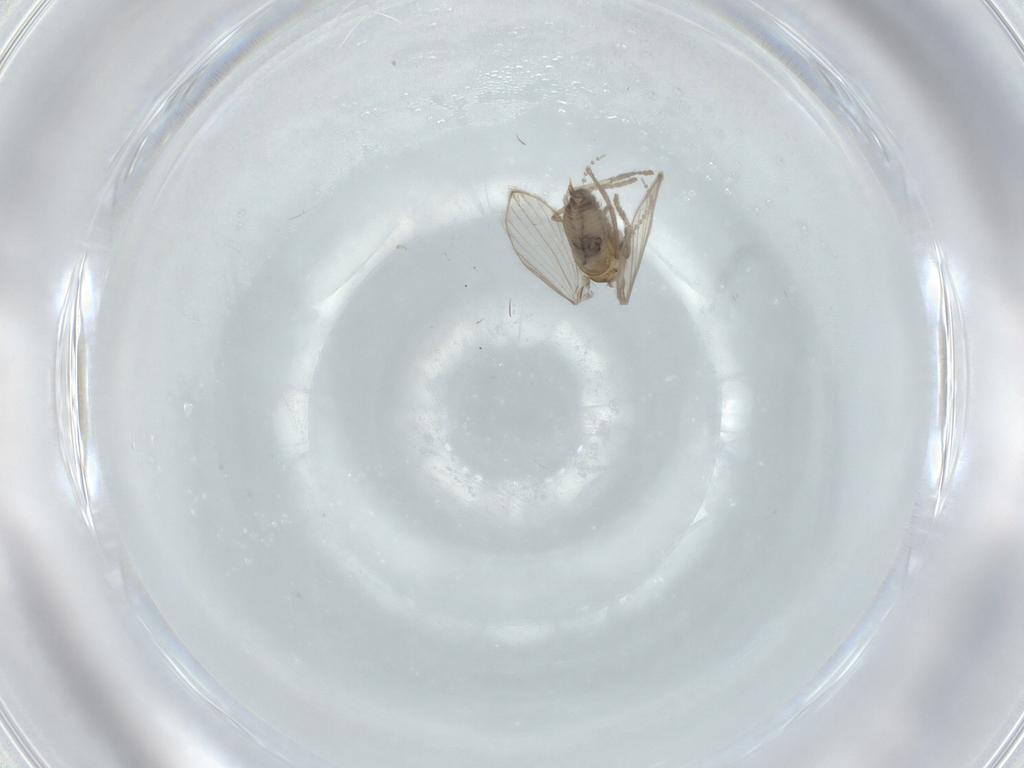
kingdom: Animalia
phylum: Arthropoda
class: Insecta
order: Diptera
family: Psychodidae
